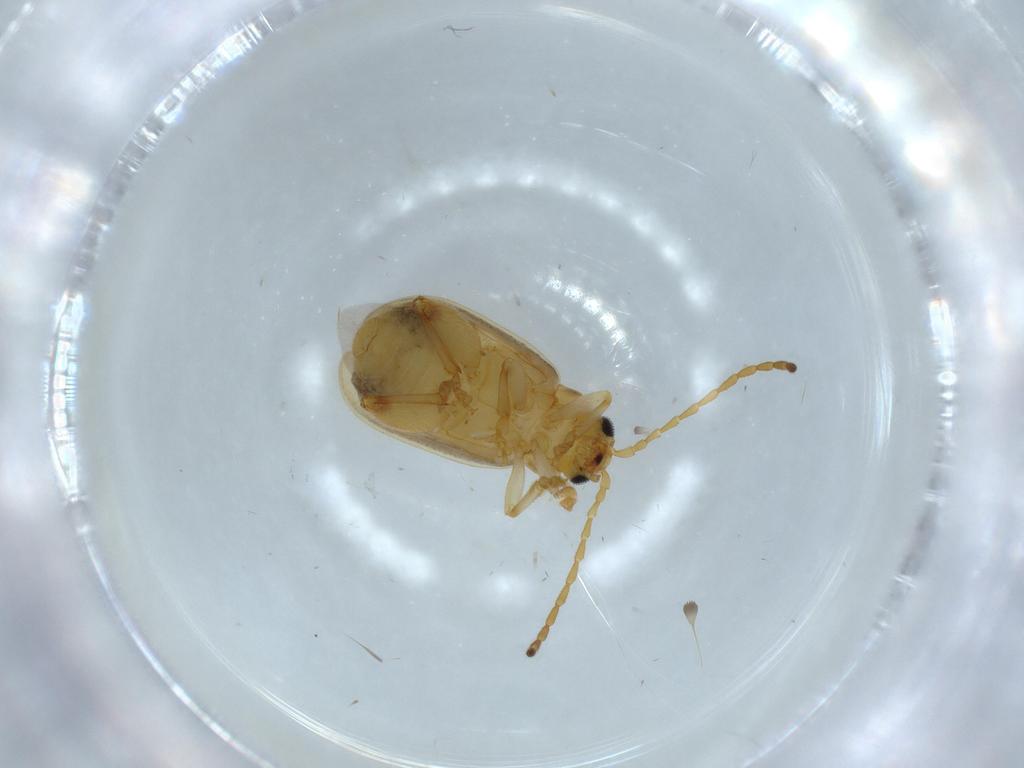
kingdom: Animalia
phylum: Arthropoda
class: Insecta
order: Coleoptera
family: Chrysomelidae
